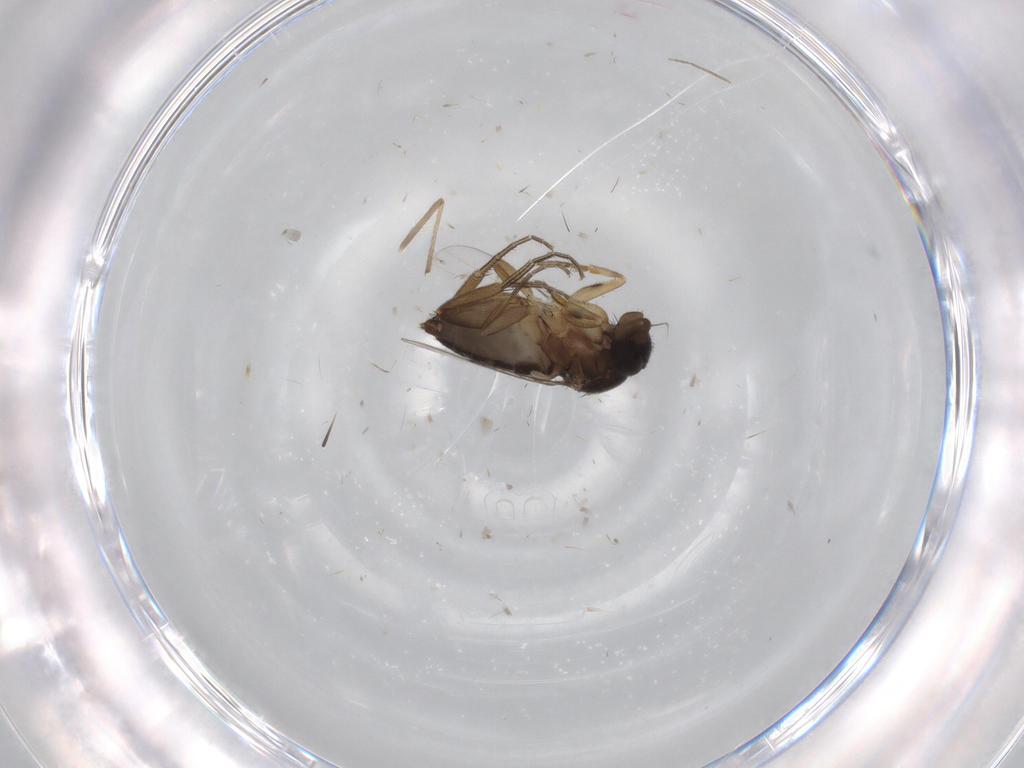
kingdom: Animalia
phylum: Arthropoda
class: Insecta
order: Diptera
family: Phoridae
